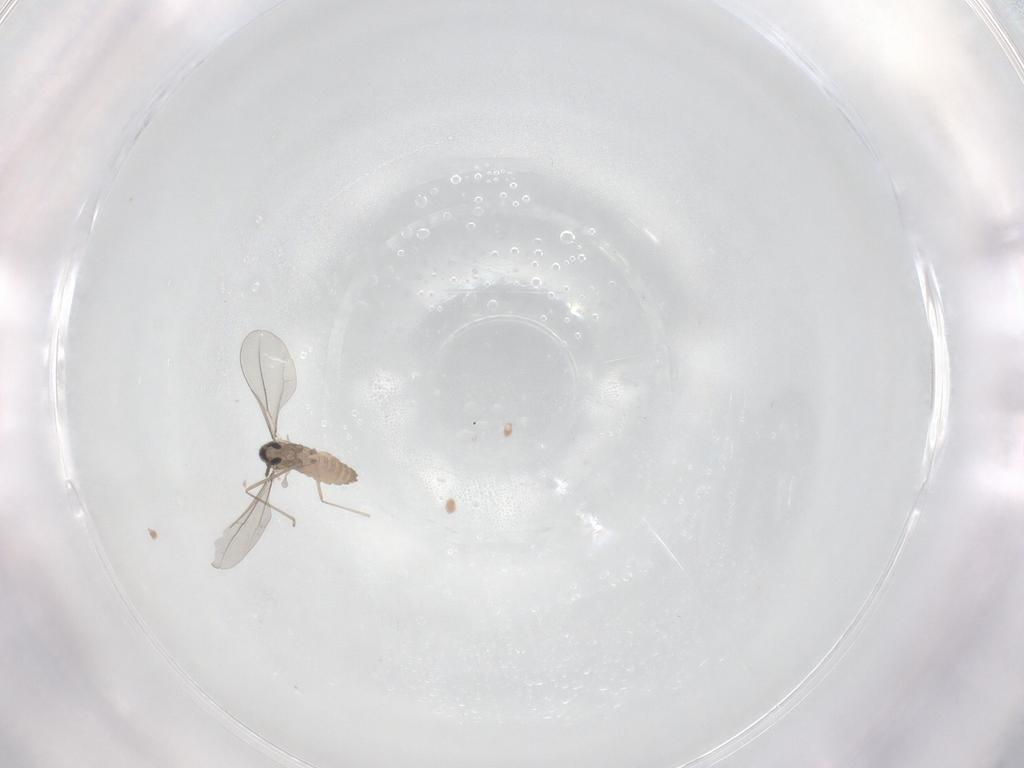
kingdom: Animalia
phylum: Arthropoda
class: Insecta
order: Diptera
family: Cecidomyiidae
